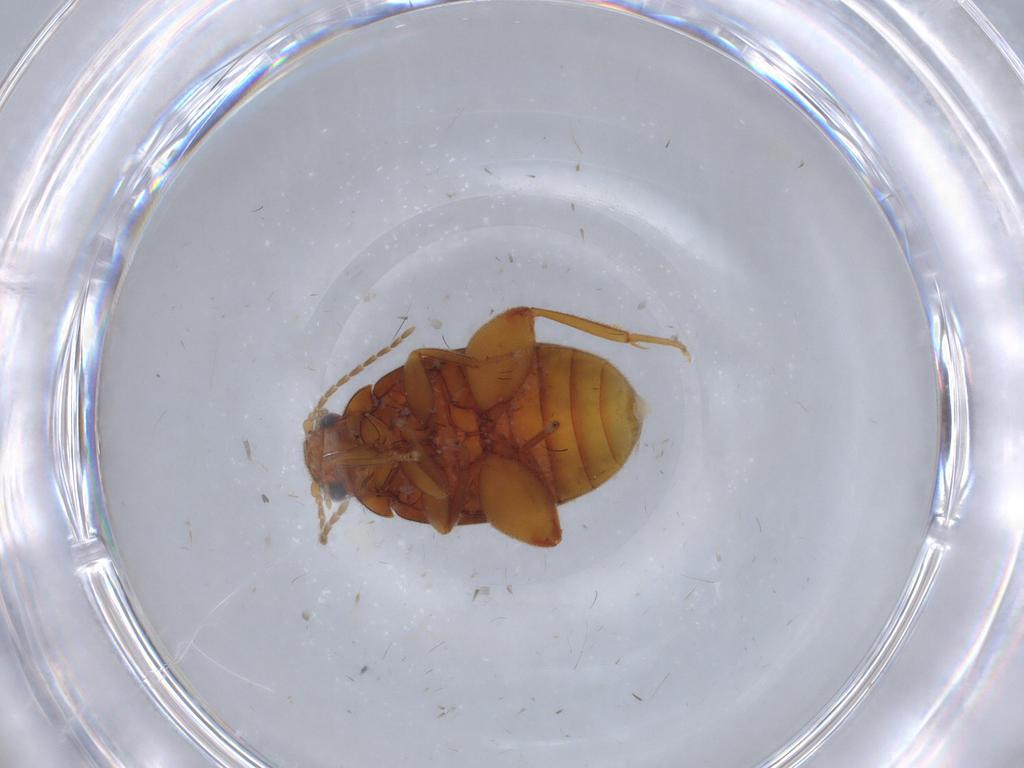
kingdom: Animalia
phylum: Arthropoda
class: Insecta
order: Coleoptera
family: Scirtidae
